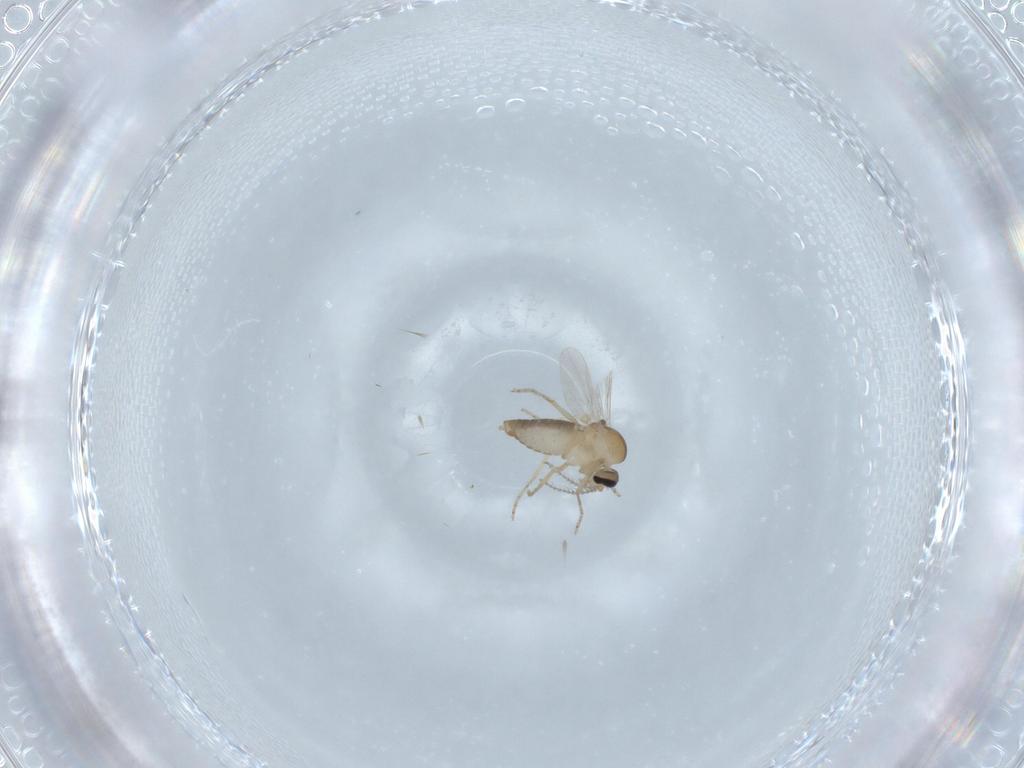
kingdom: Animalia
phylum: Arthropoda
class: Insecta
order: Diptera
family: Ceratopogonidae
